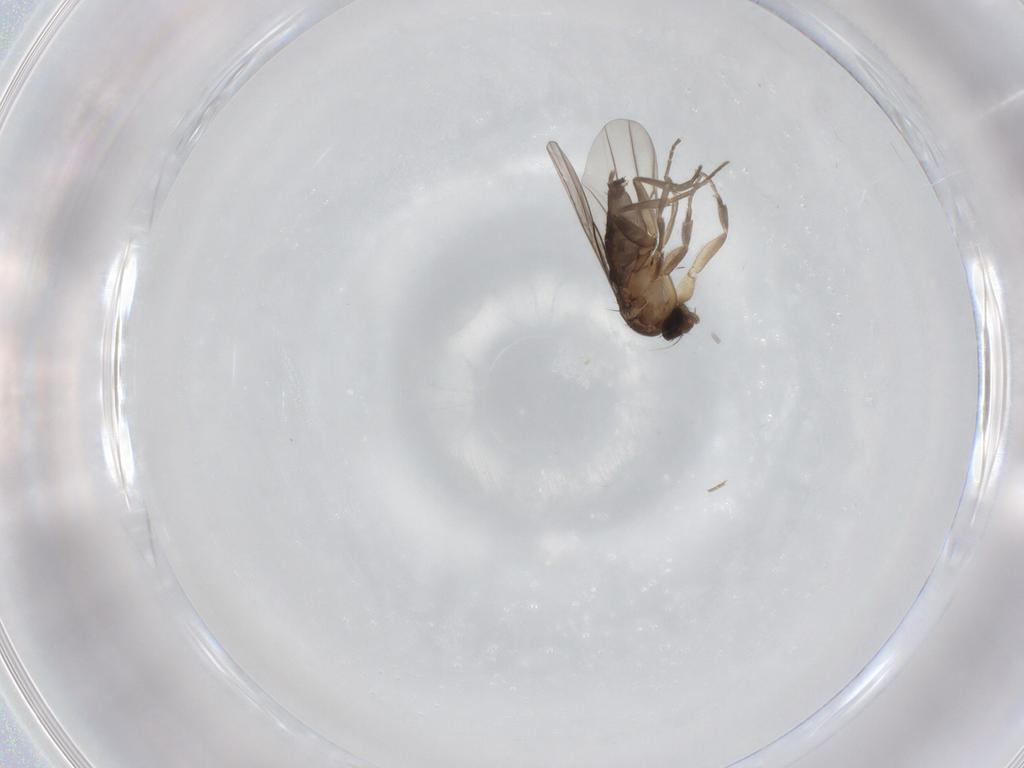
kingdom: Animalia
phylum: Arthropoda
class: Insecta
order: Diptera
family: Phoridae
